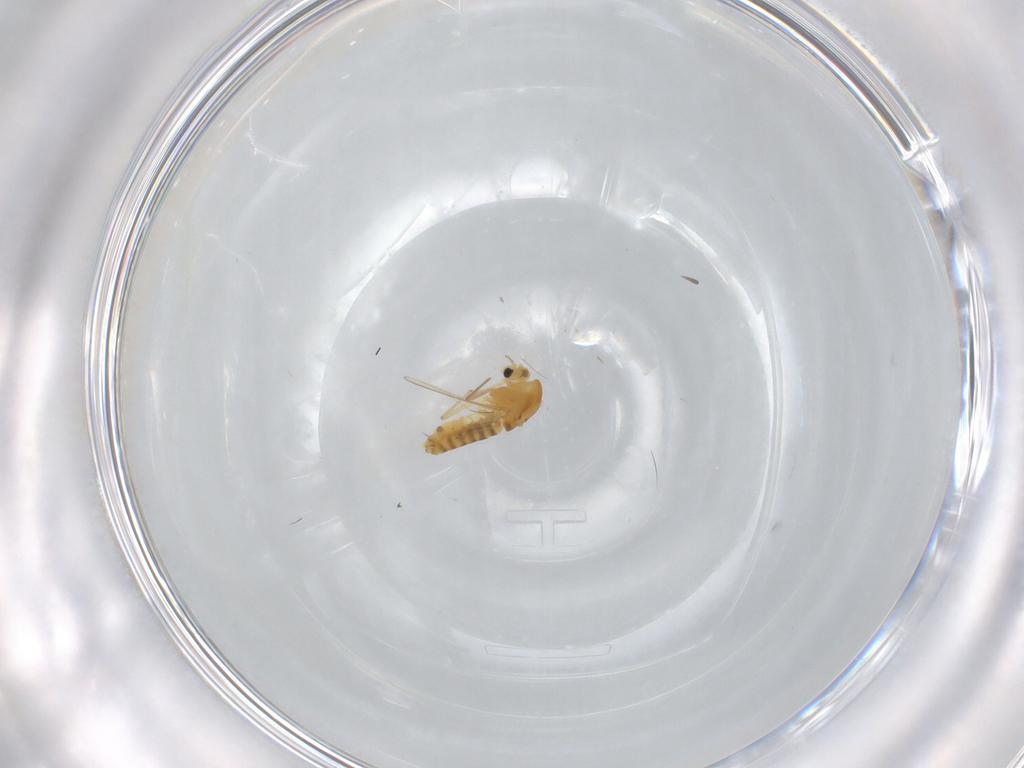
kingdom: Animalia
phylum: Arthropoda
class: Insecta
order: Diptera
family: Chironomidae
